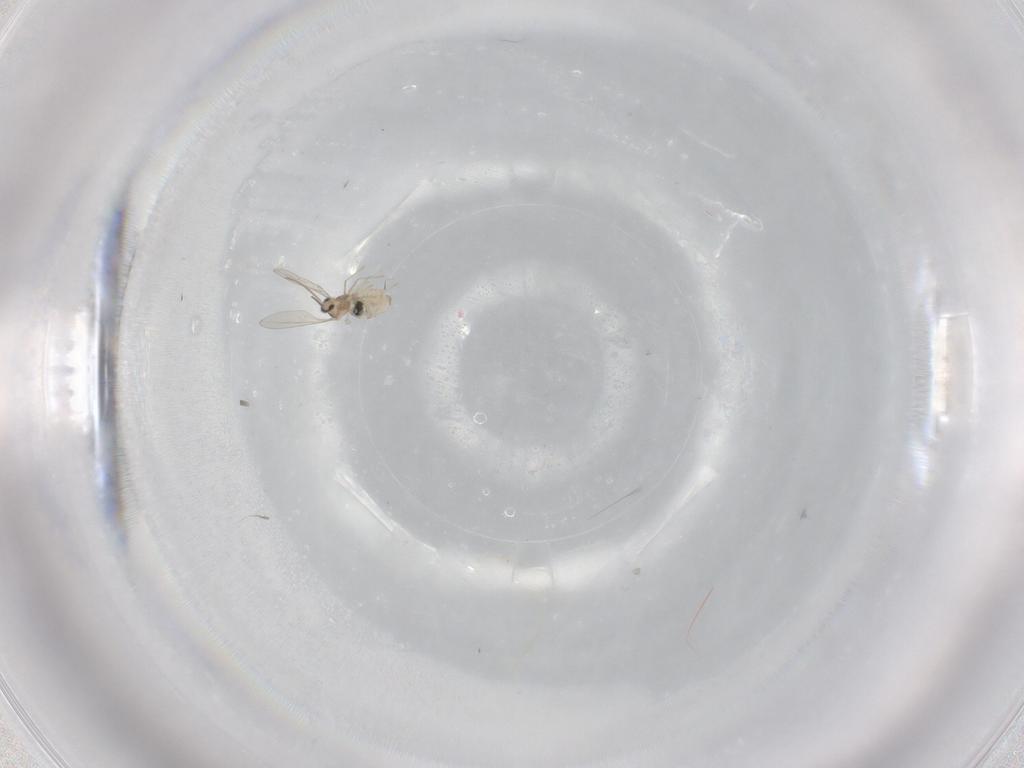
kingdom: Animalia
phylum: Arthropoda
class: Insecta
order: Diptera
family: Cecidomyiidae
